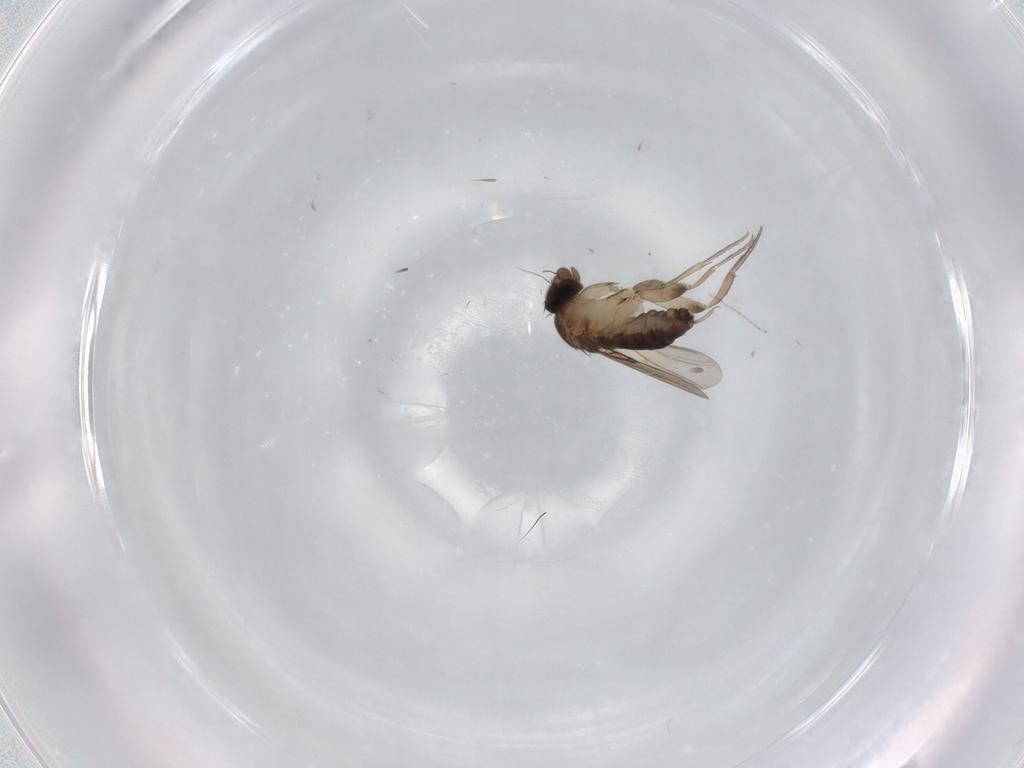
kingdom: Animalia
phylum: Arthropoda
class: Insecta
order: Diptera
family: Phoridae
